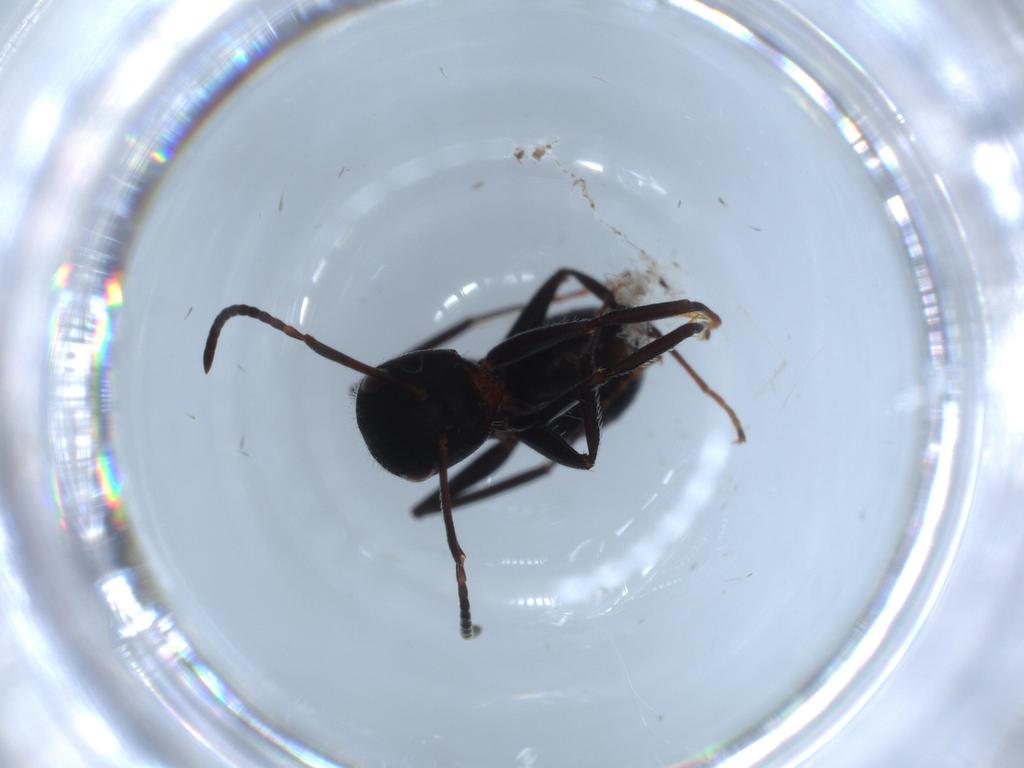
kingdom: Animalia
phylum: Arthropoda
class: Insecta
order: Hymenoptera
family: Formicidae
